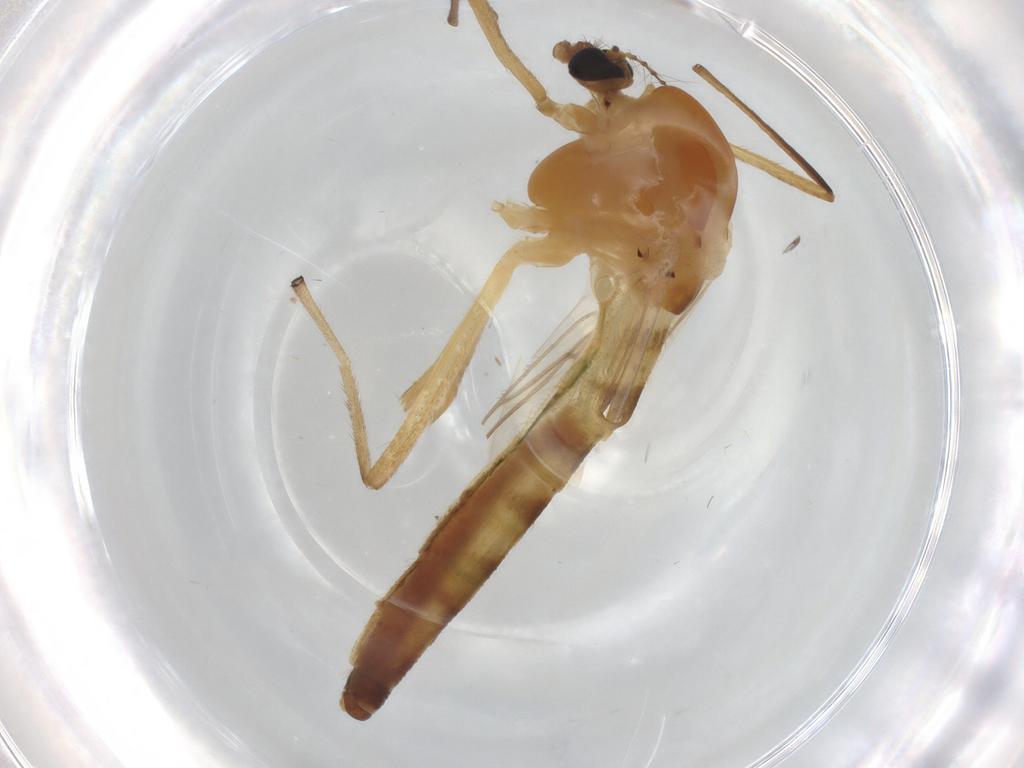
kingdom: Animalia
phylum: Arthropoda
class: Insecta
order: Diptera
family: Chironomidae
